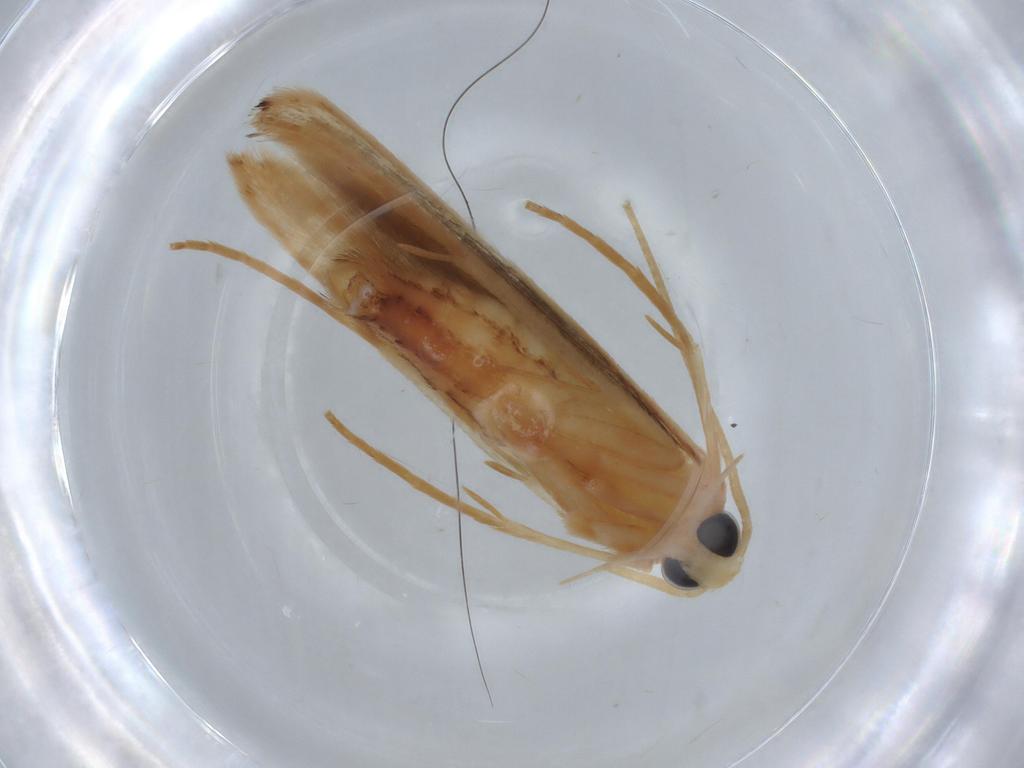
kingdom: Animalia
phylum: Arthropoda
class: Insecta
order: Lepidoptera
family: Coleophoridae
